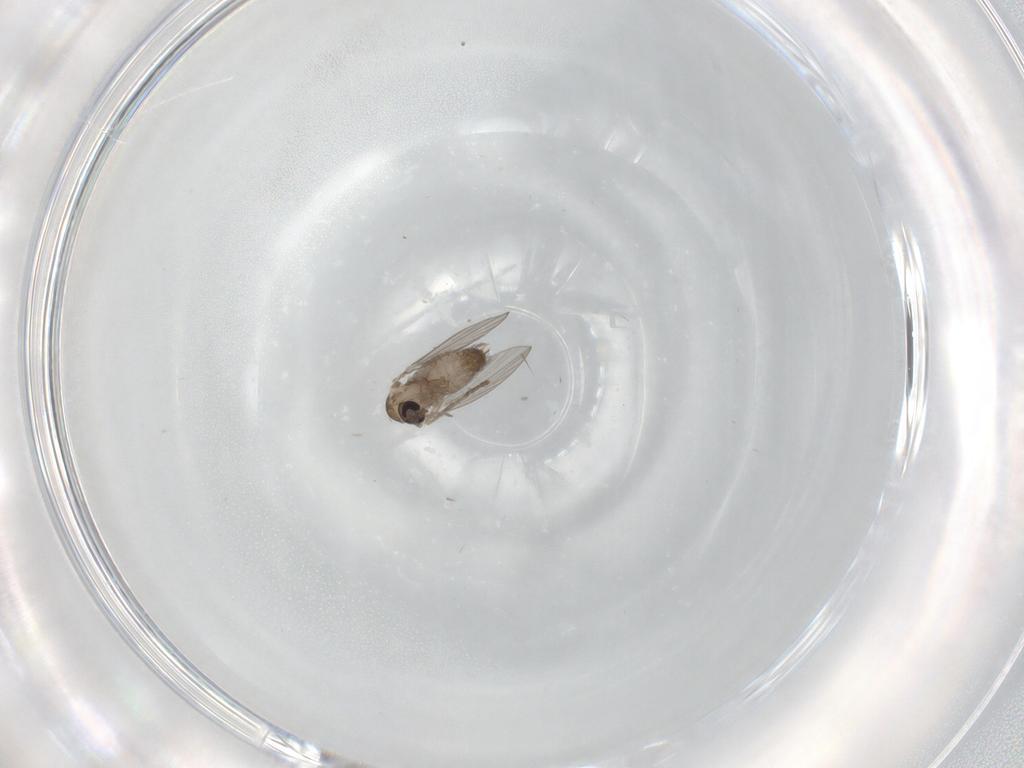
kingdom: Animalia
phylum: Arthropoda
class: Insecta
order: Diptera
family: Psychodidae
